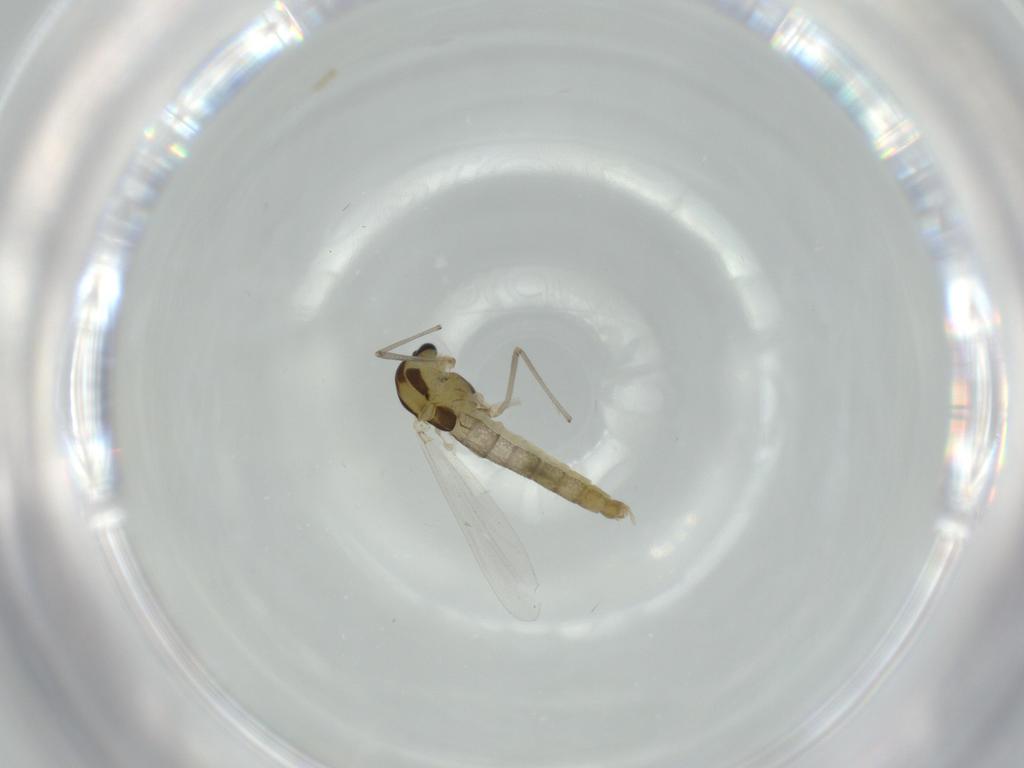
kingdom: Animalia
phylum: Arthropoda
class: Insecta
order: Diptera
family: Chironomidae
